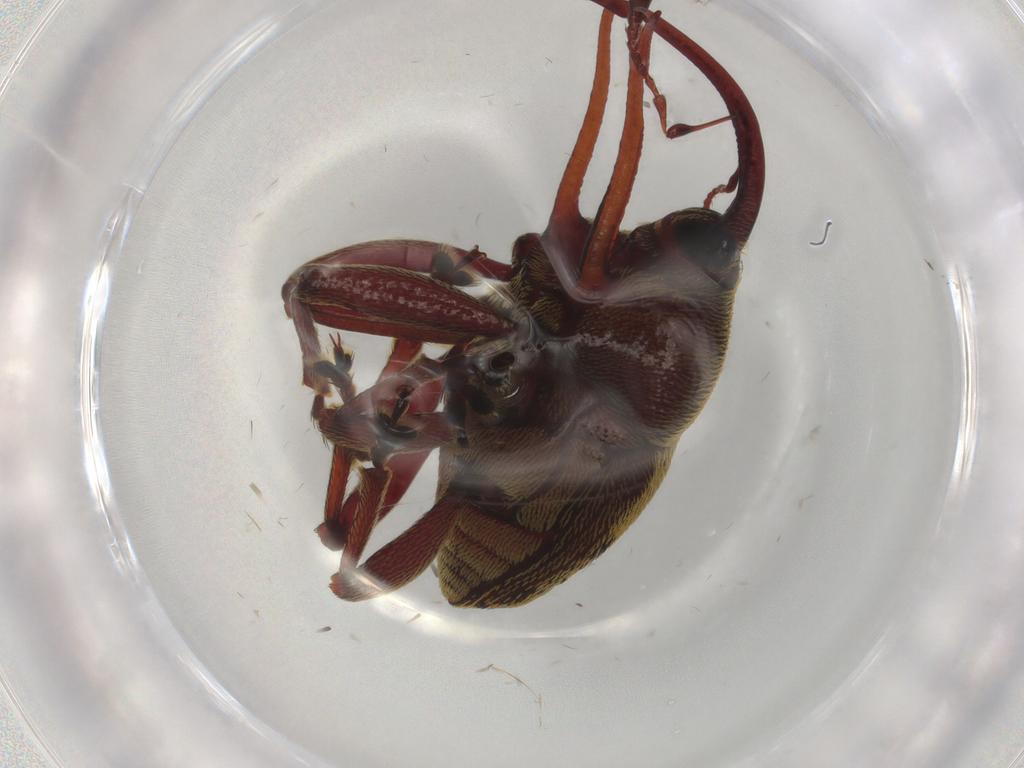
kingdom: Animalia
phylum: Arthropoda
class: Insecta
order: Coleoptera
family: Curculionidae
